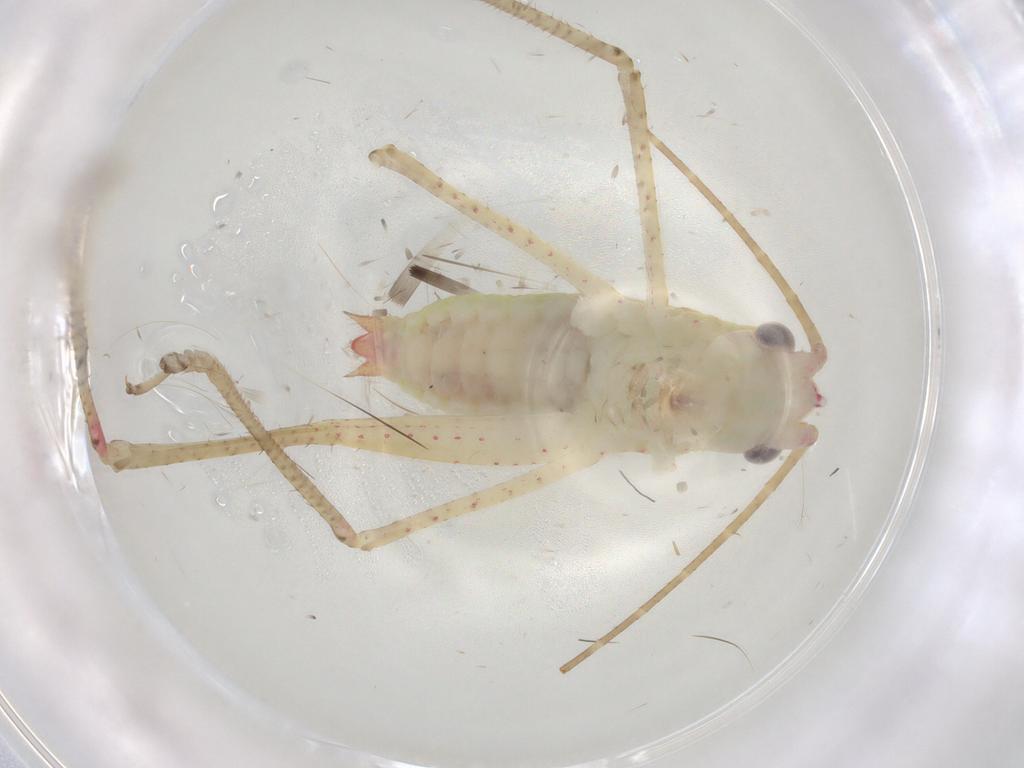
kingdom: Animalia
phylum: Arthropoda
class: Insecta
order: Orthoptera
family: Tettigoniidae
